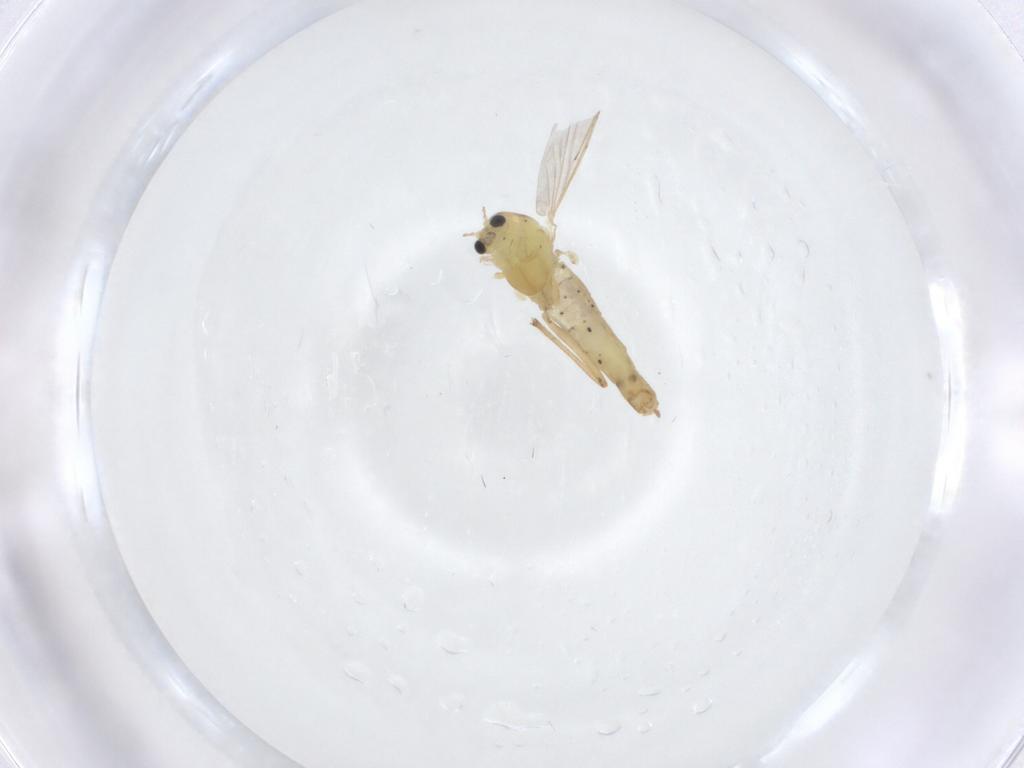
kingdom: Animalia
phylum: Arthropoda
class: Insecta
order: Diptera
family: Chironomidae
